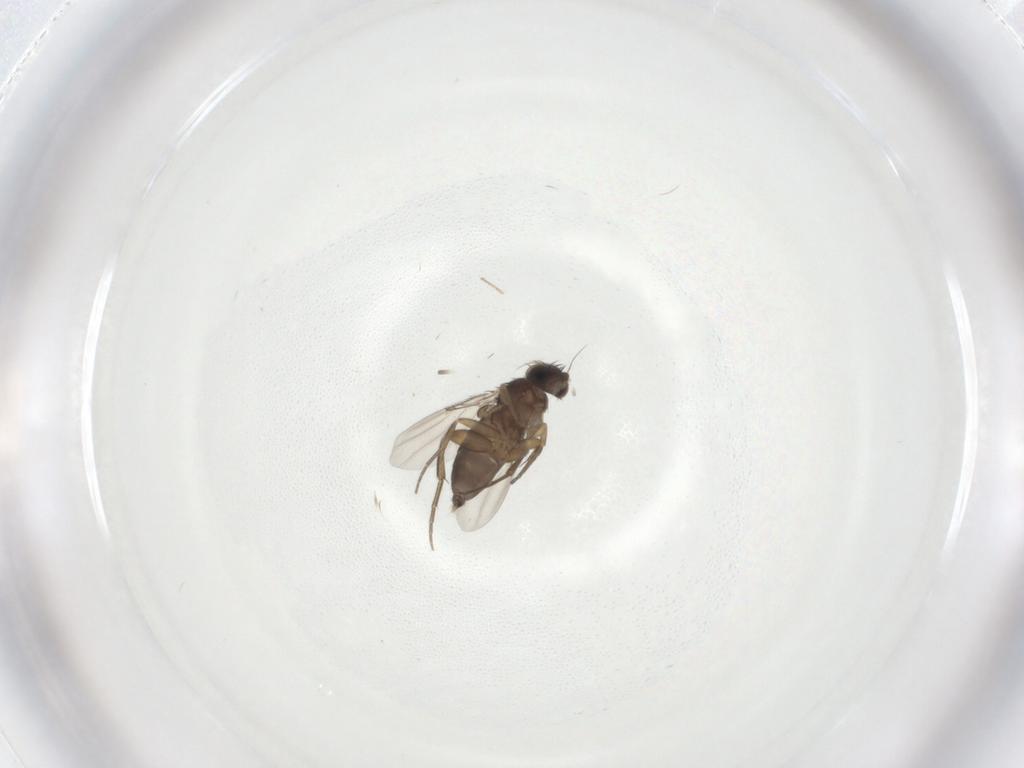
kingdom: Animalia
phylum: Arthropoda
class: Insecta
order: Diptera
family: Phoridae
